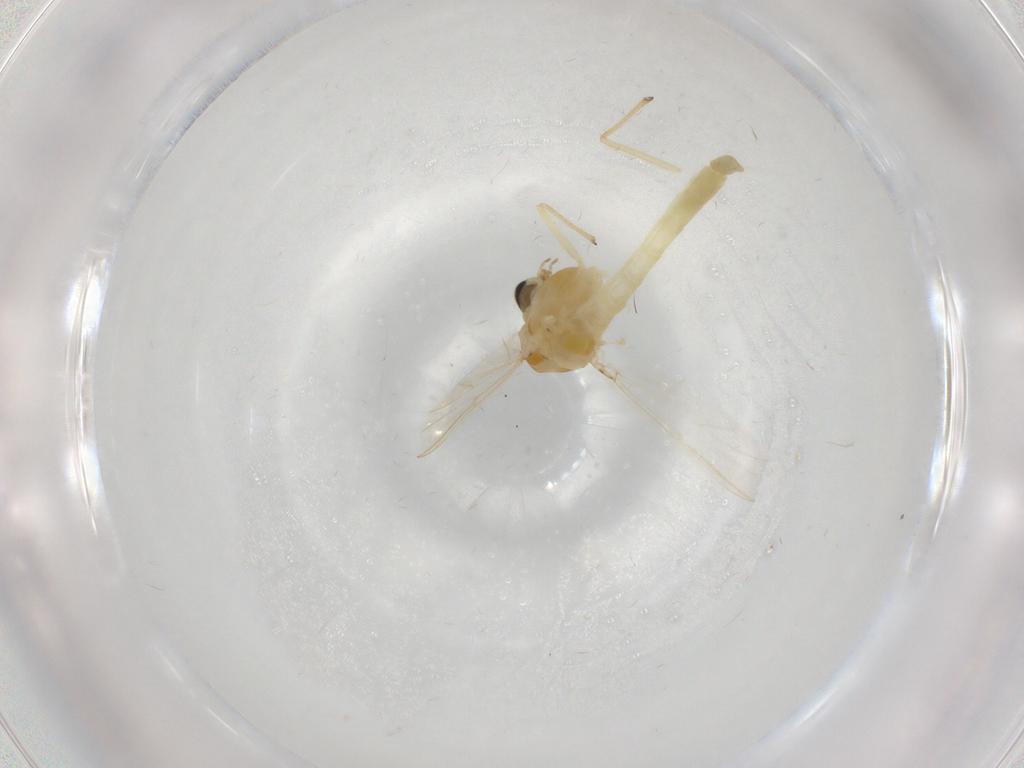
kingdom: Animalia
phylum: Arthropoda
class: Insecta
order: Diptera
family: Chironomidae
